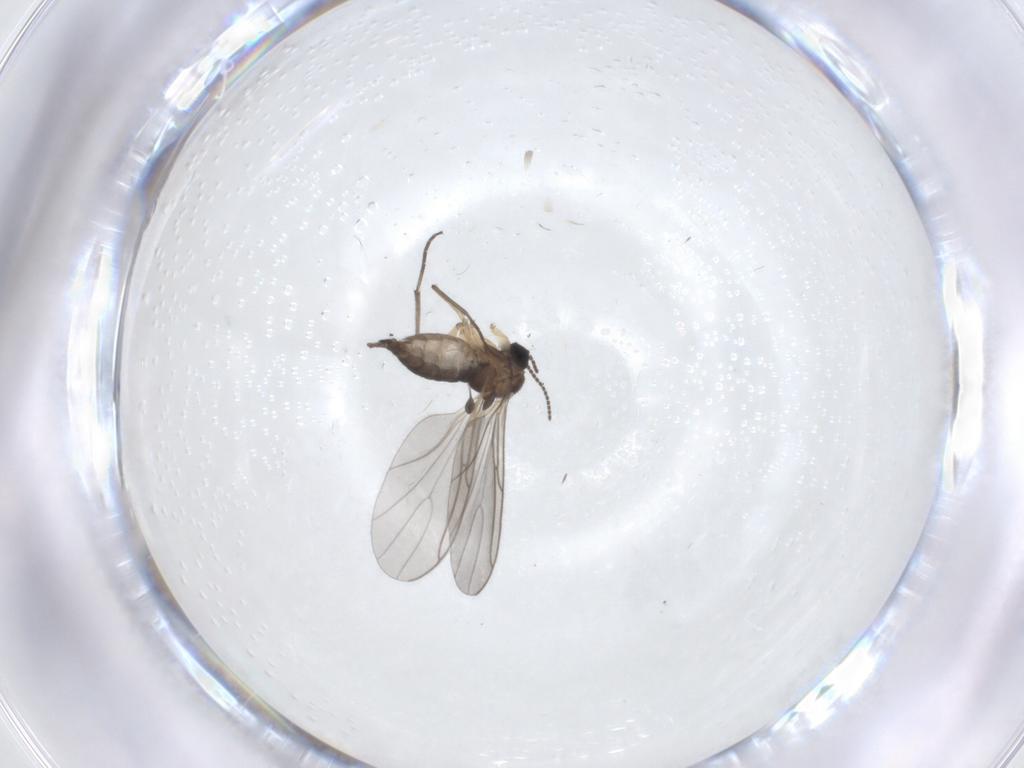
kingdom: Animalia
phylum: Arthropoda
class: Insecta
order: Diptera
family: Sciaridae
